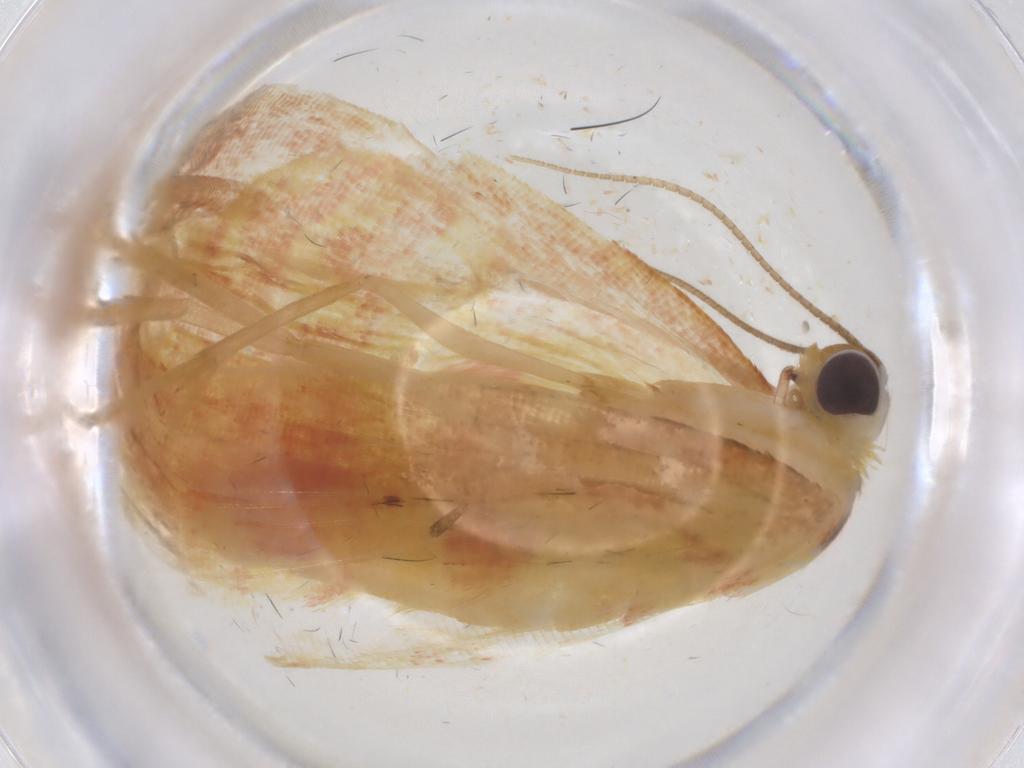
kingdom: Animalia
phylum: Arthropoda
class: Insecta
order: Lepidoptera
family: Geometridae
